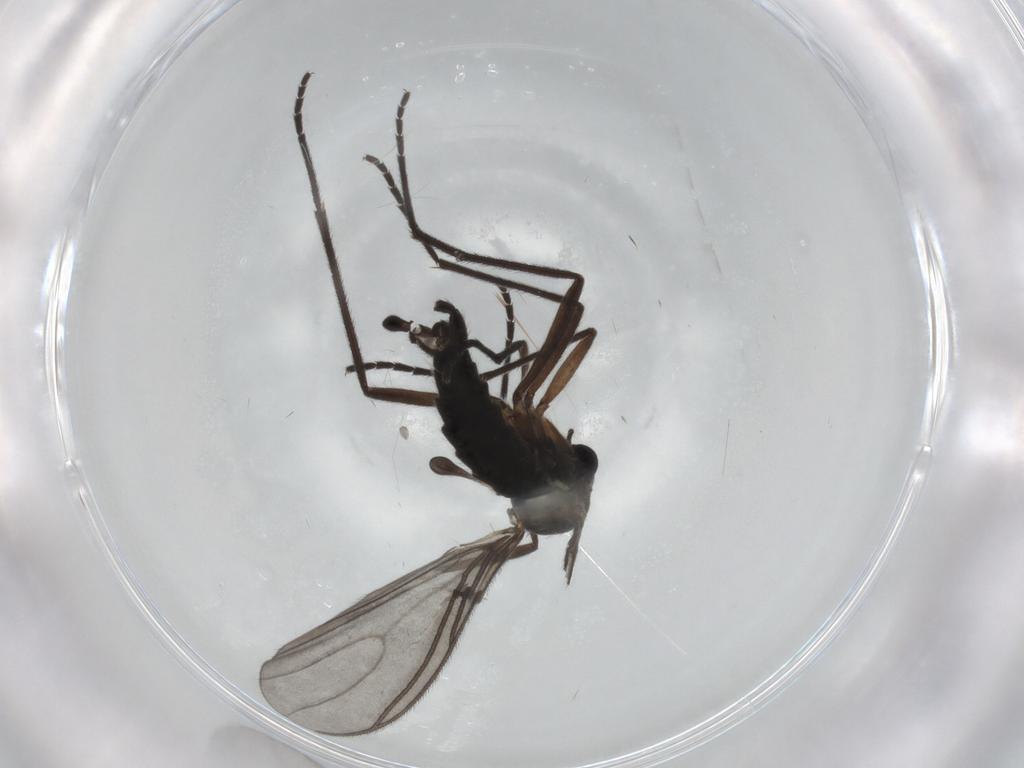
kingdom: Animalia
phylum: Arthropoda
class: Insecta
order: Diptera
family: Sciaridae
